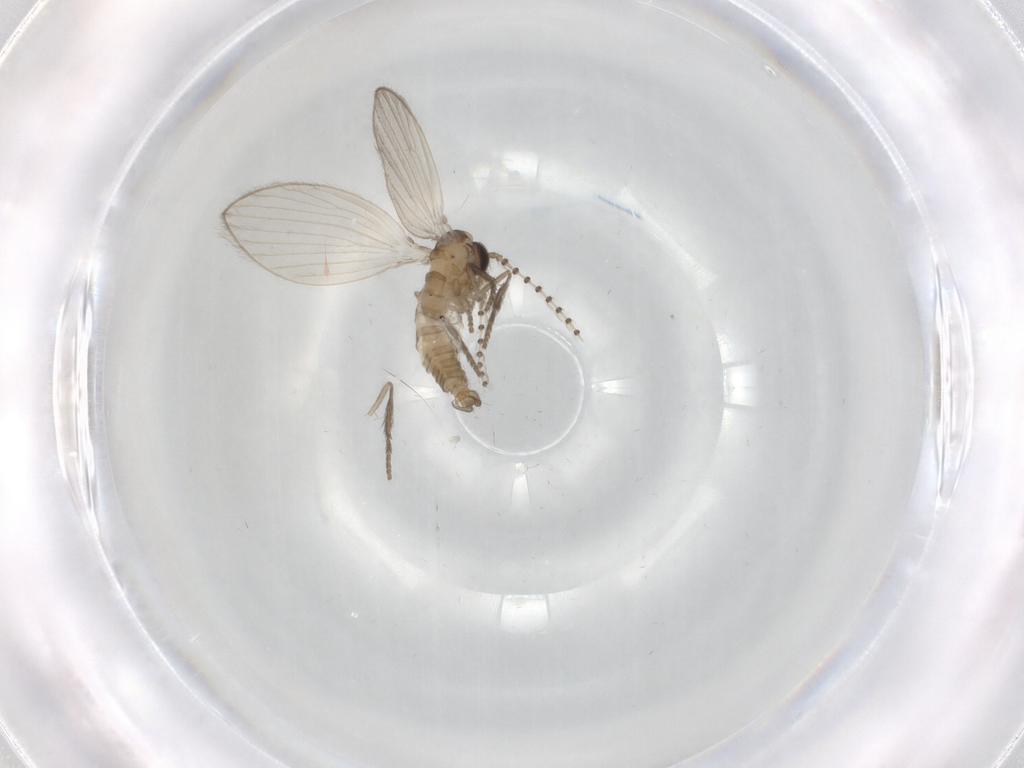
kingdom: Animalia
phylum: Arthropoda
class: Insecta
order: Diptera
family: Psychodidae
